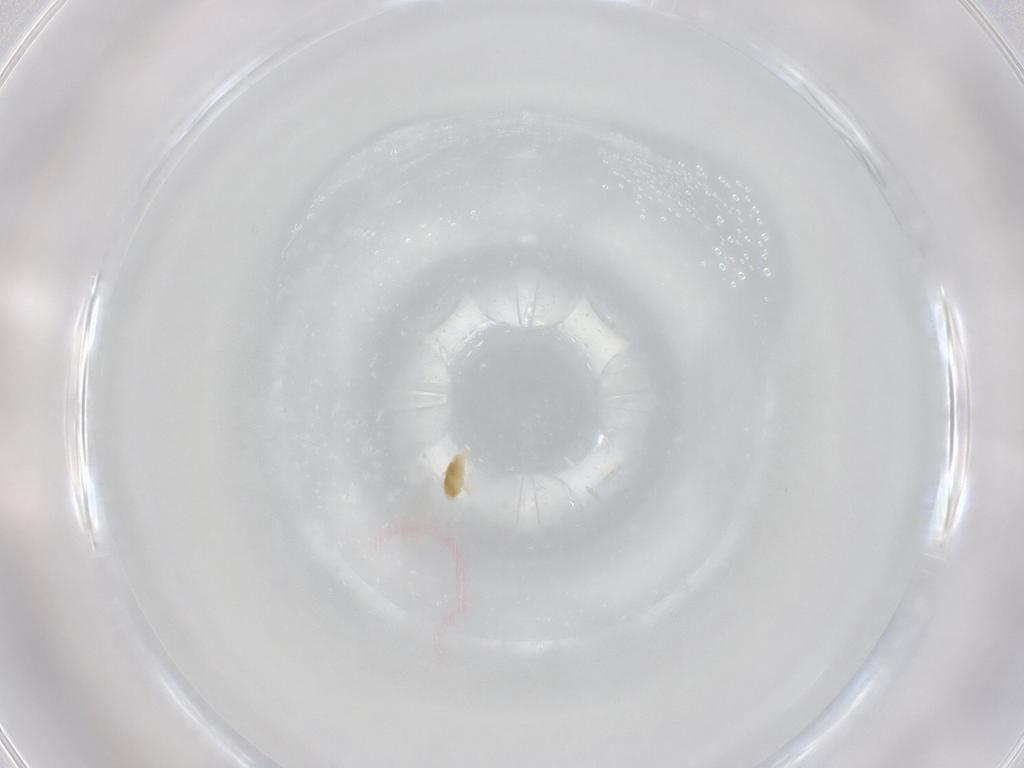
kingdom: Animalia
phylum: Arthropoda
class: Arachnida
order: Trombidiformes
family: Eupodidae
